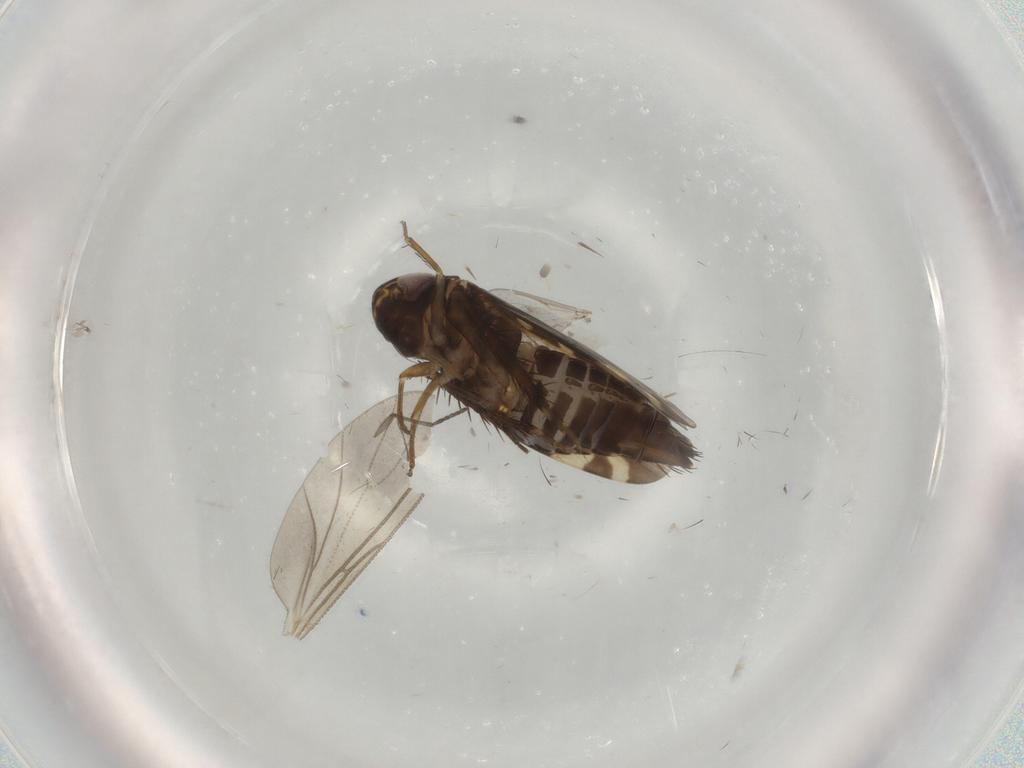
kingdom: Animalia
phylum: Arthropoda
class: Insecta
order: Hemiptera
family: Cicadellidae
